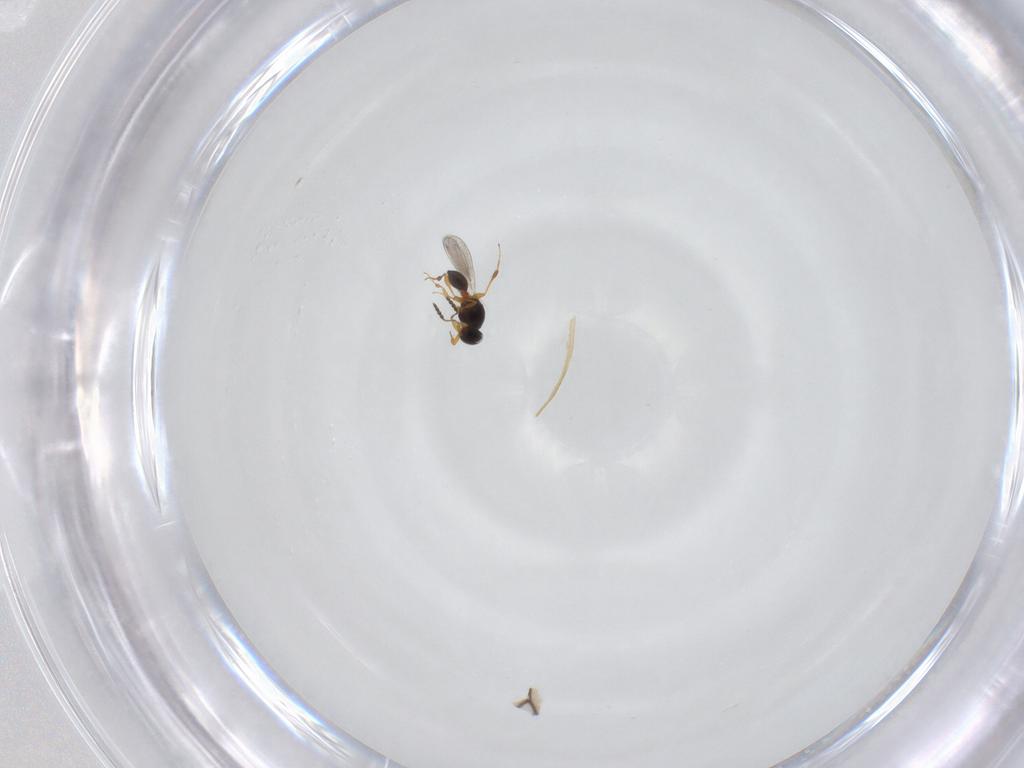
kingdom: Animalia
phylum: Arthropoda
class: Insecta
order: Hymenoptera
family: Platygastridae
